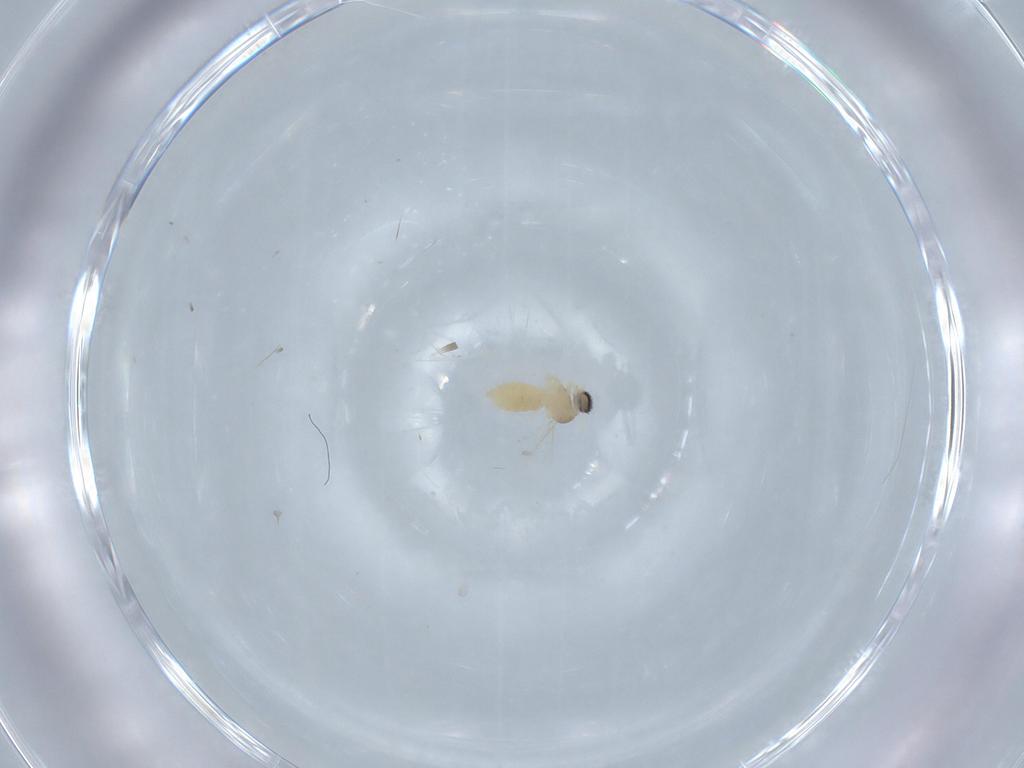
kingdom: Animalia
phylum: Arthropoda
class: Insecta
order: Diptera
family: Cecidomyiidae
